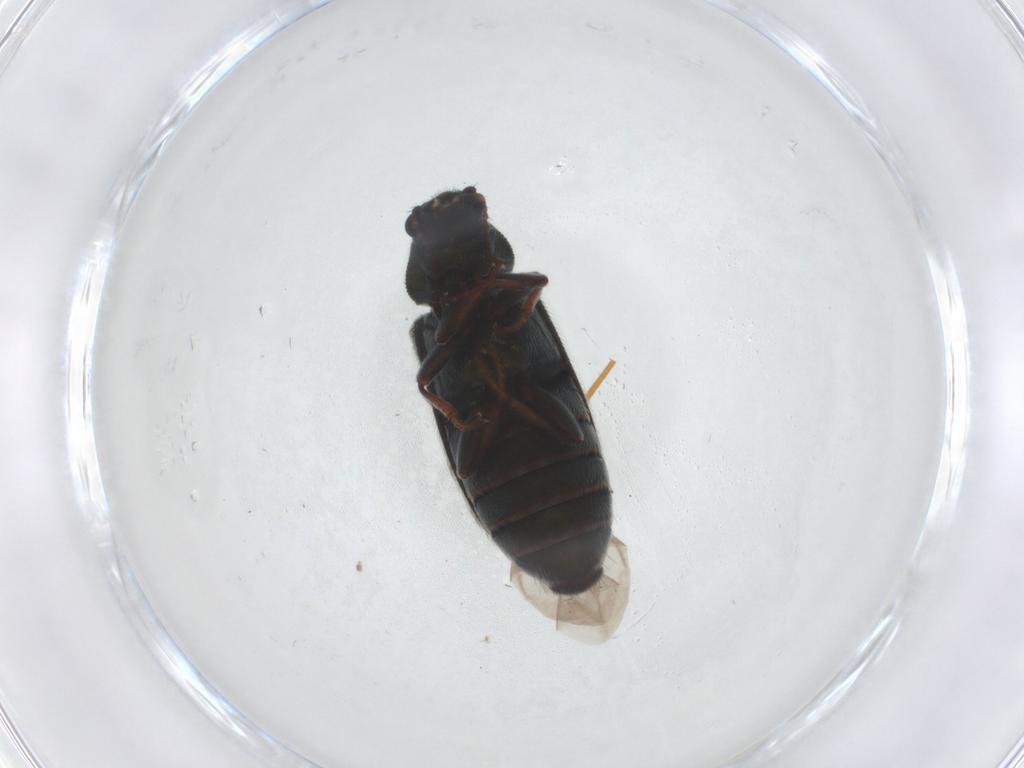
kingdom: Animalia
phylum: Arthropoda
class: Insecta
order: Coleoptera
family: Melyridae
